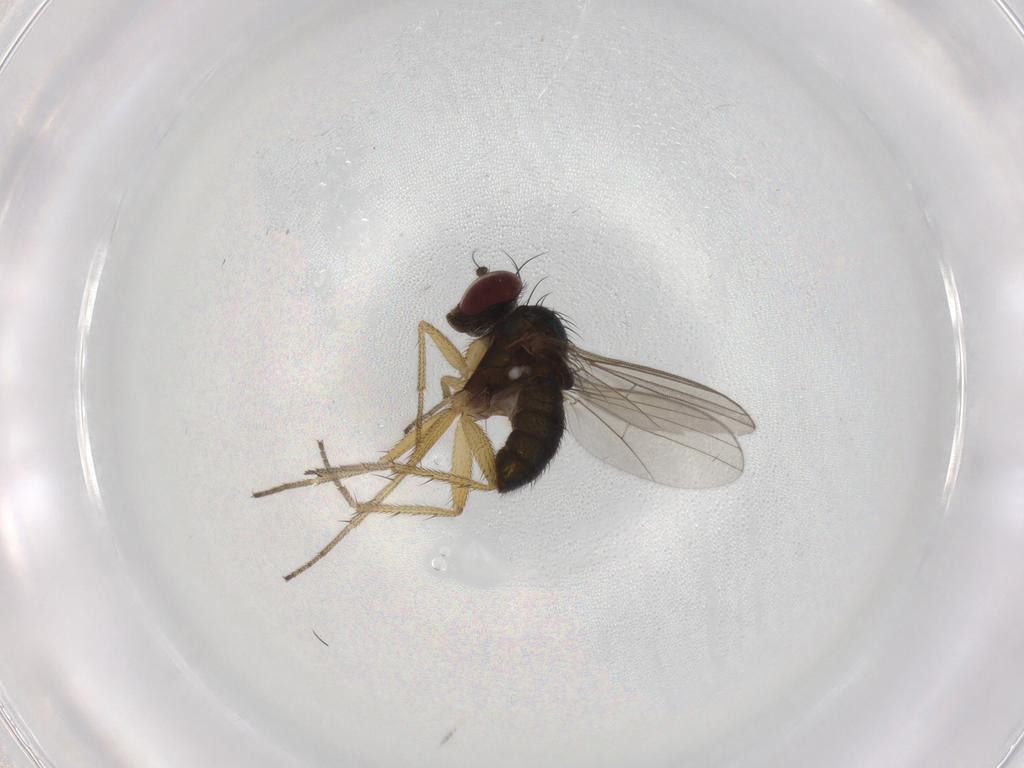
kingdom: Animalia
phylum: Arthropoda
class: Insecta
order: Diptera
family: Dolichopodidae
